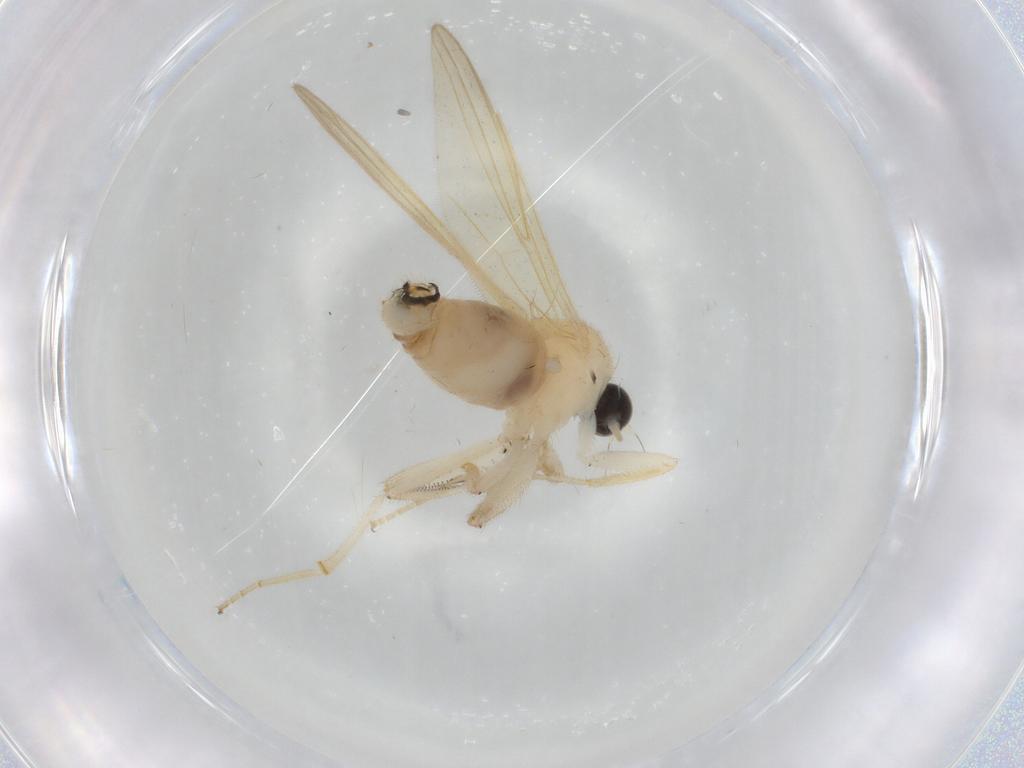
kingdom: Animalia
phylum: Arthropoda
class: Insecta
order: Diptera
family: Hybotidae
